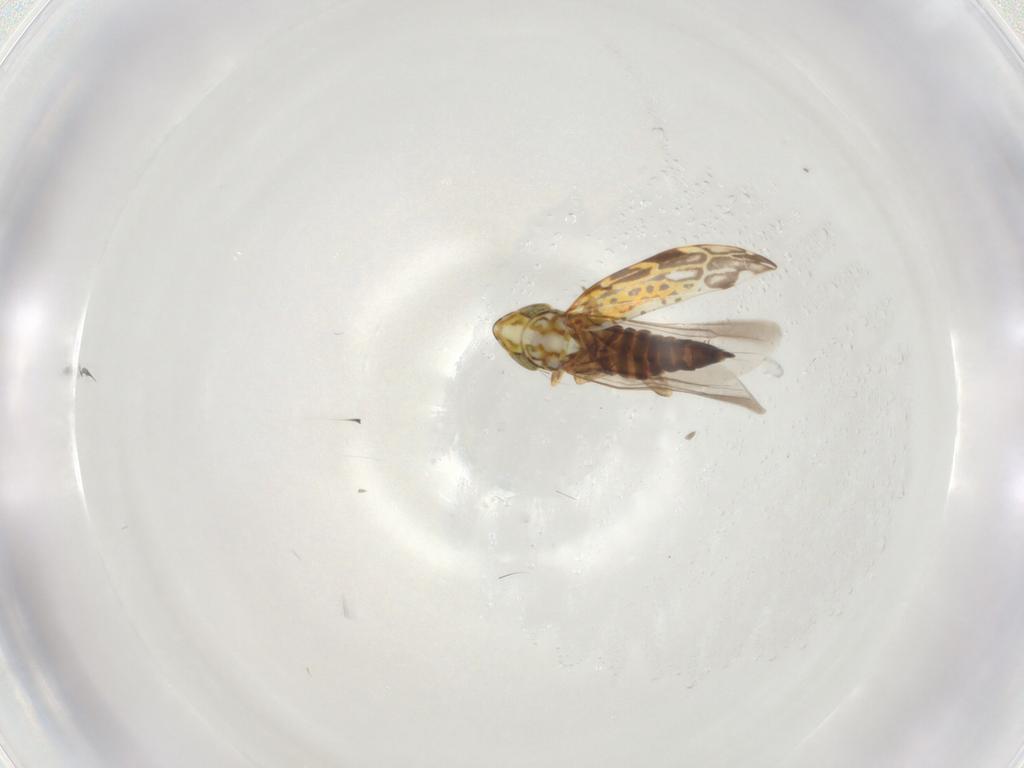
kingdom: Animalia
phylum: Arthropoda
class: Insecta
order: Hemiptera
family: Cicadellidae
